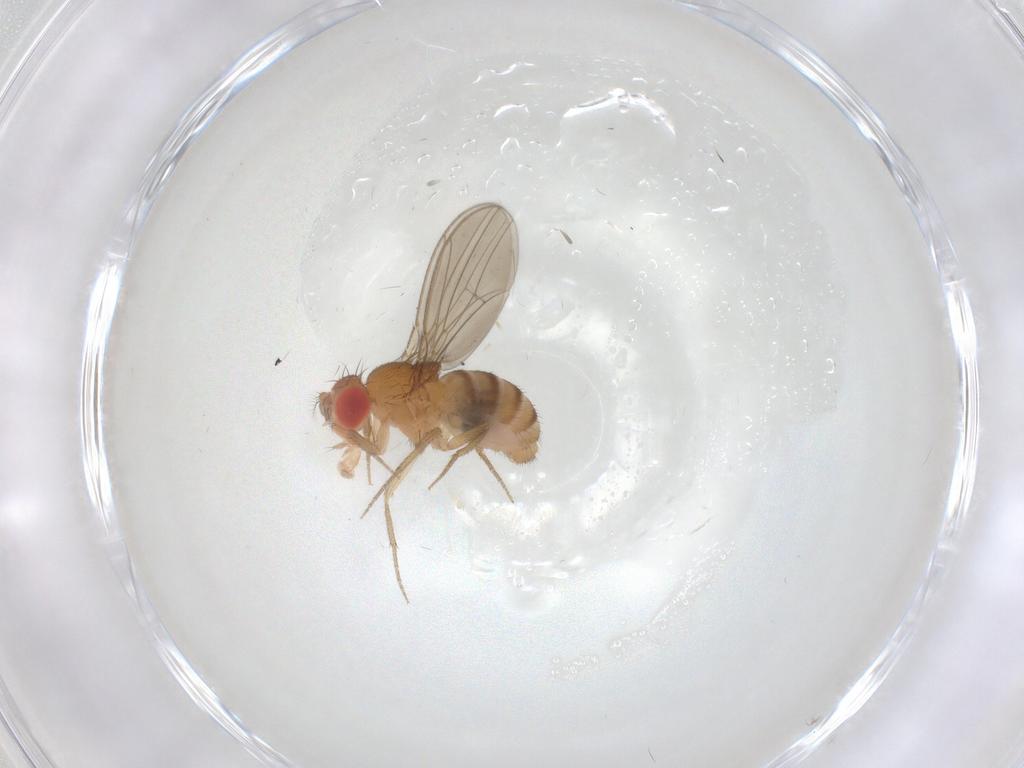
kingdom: Animalia
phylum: Arthropoda
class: Insecta
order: Diptera
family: Drosophilidae
